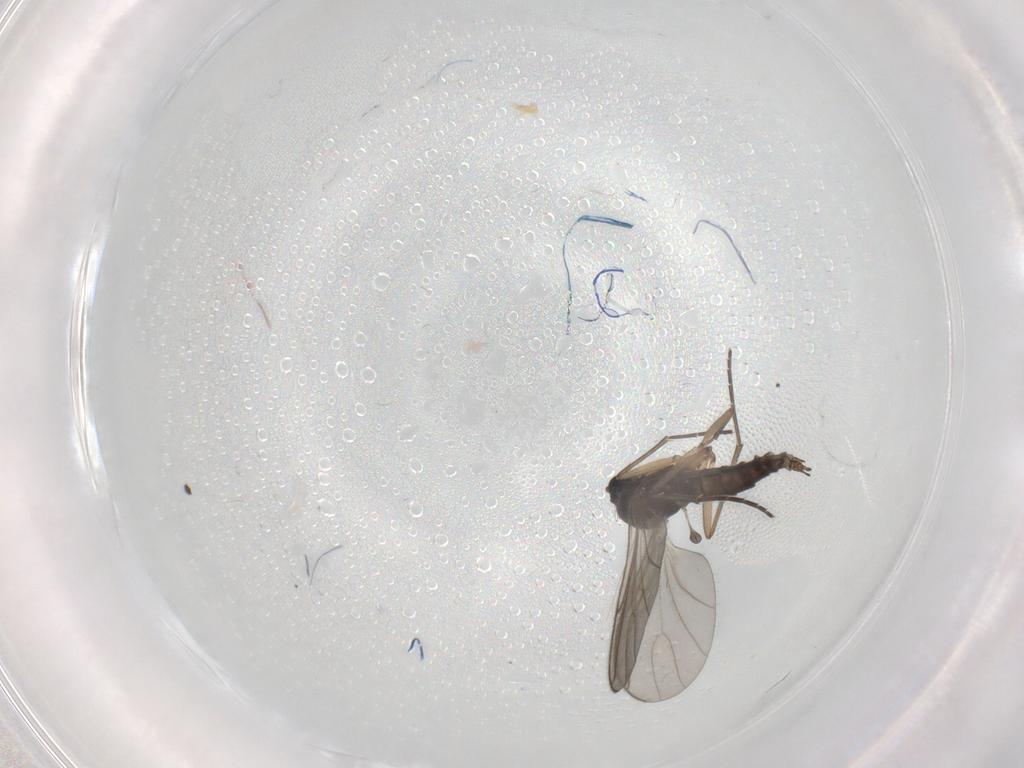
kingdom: Animalia
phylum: Arthropoda
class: Insecta
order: Diptera
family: Sciaridae
